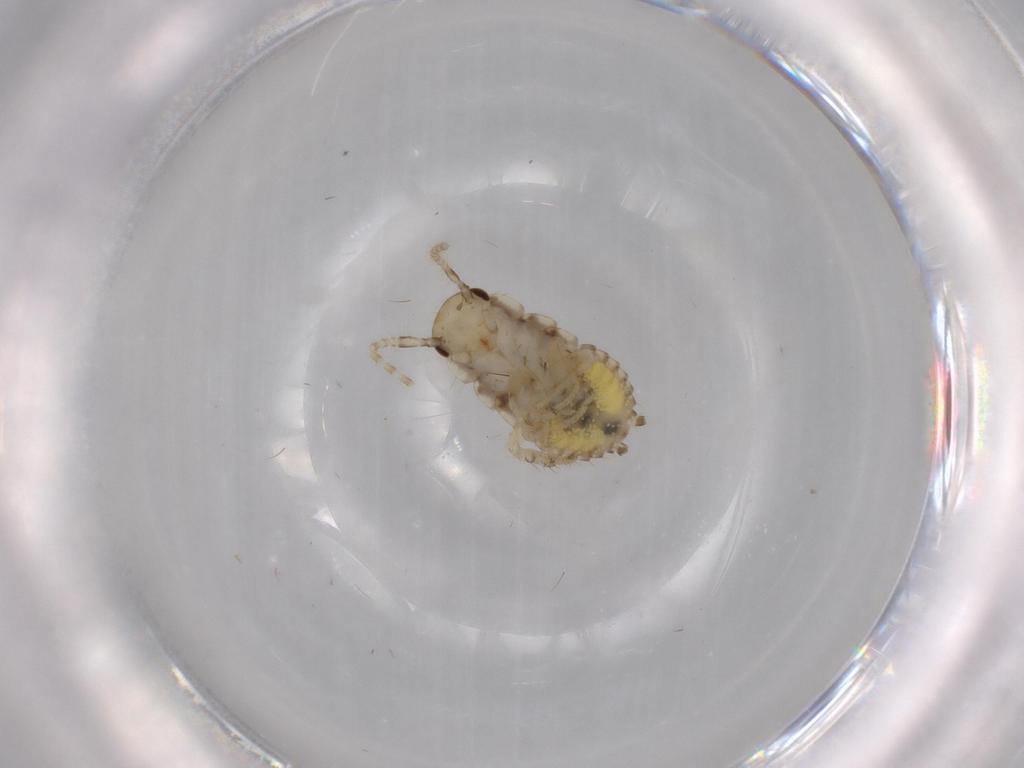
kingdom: Animalia
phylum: Arthropoda
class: Insecta
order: Blattodea
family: Ectobiidae
